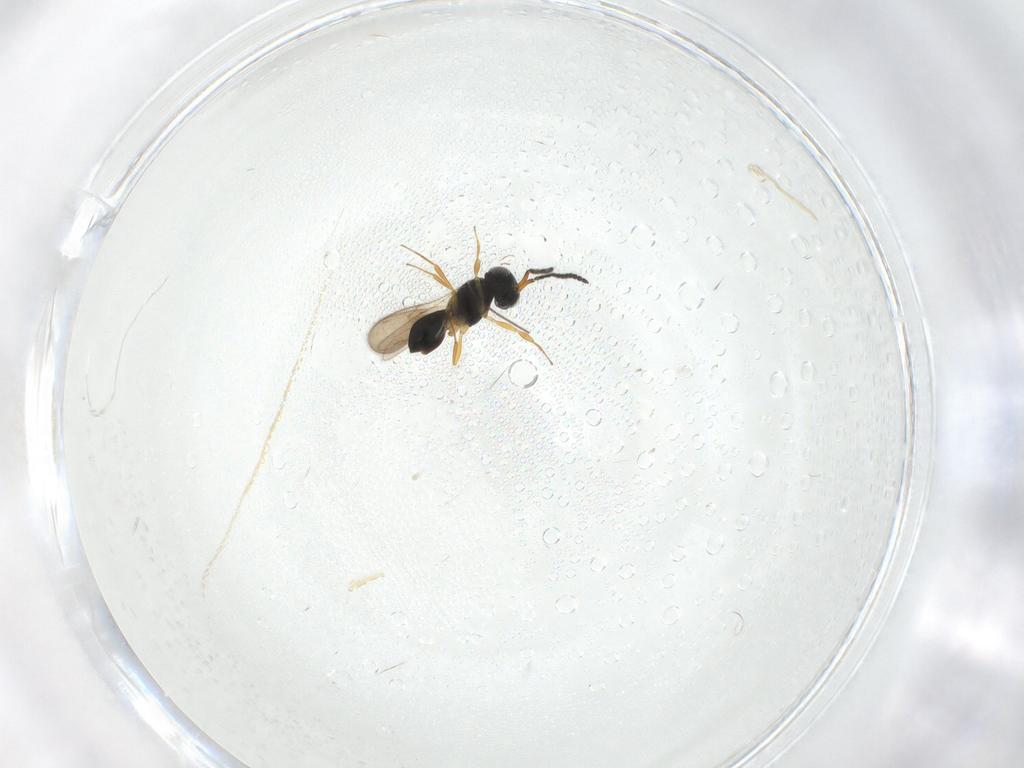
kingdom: Animalia
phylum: Arthropoda
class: Insecta
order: Hymenoptera
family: Scelionidae
